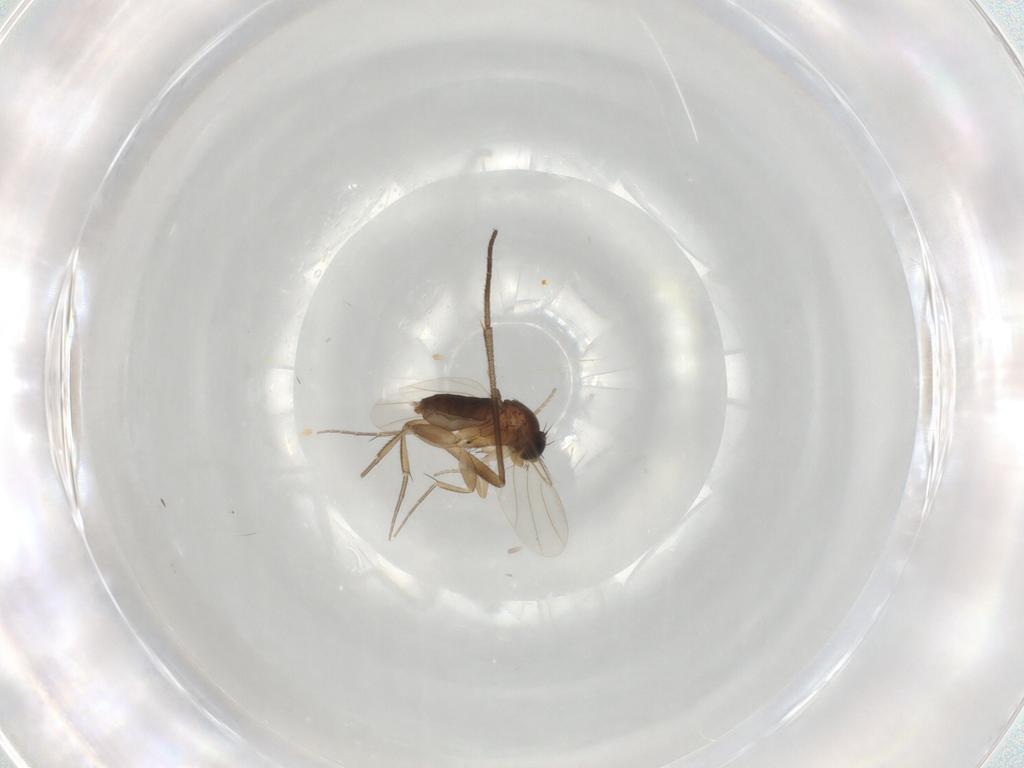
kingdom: Animalia
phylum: Arthropoda
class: Insecta
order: Diptera
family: Phoridae
